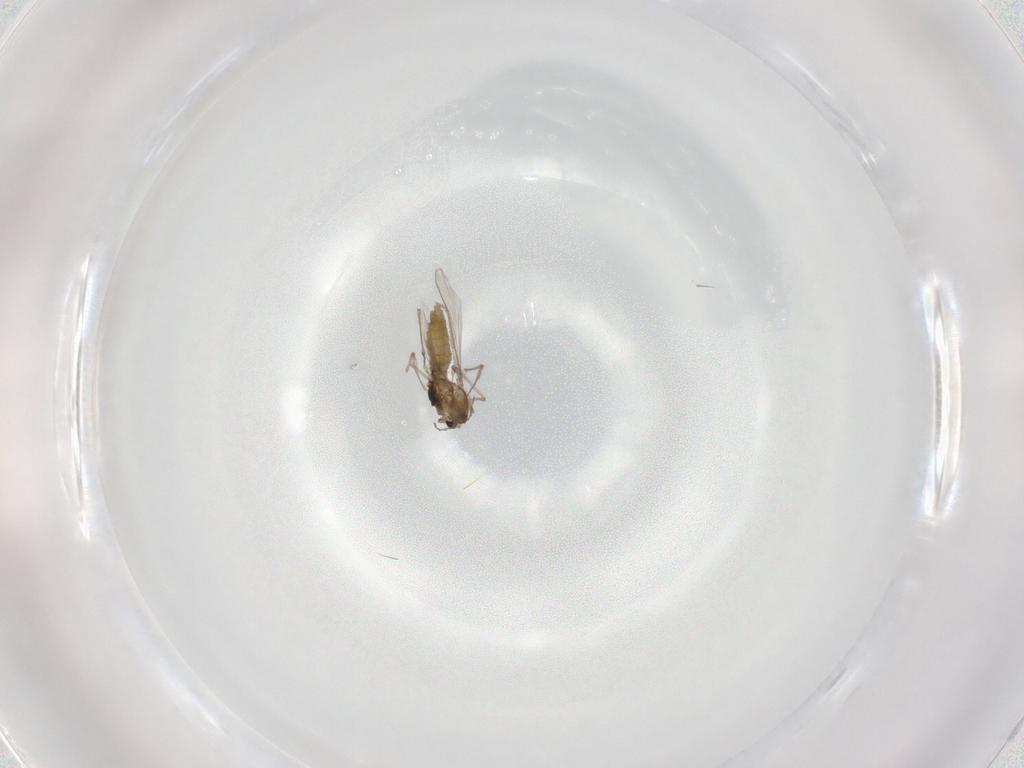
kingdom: Animalia
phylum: Arthropoda
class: Insecta
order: Diptera
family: Chironomidae
